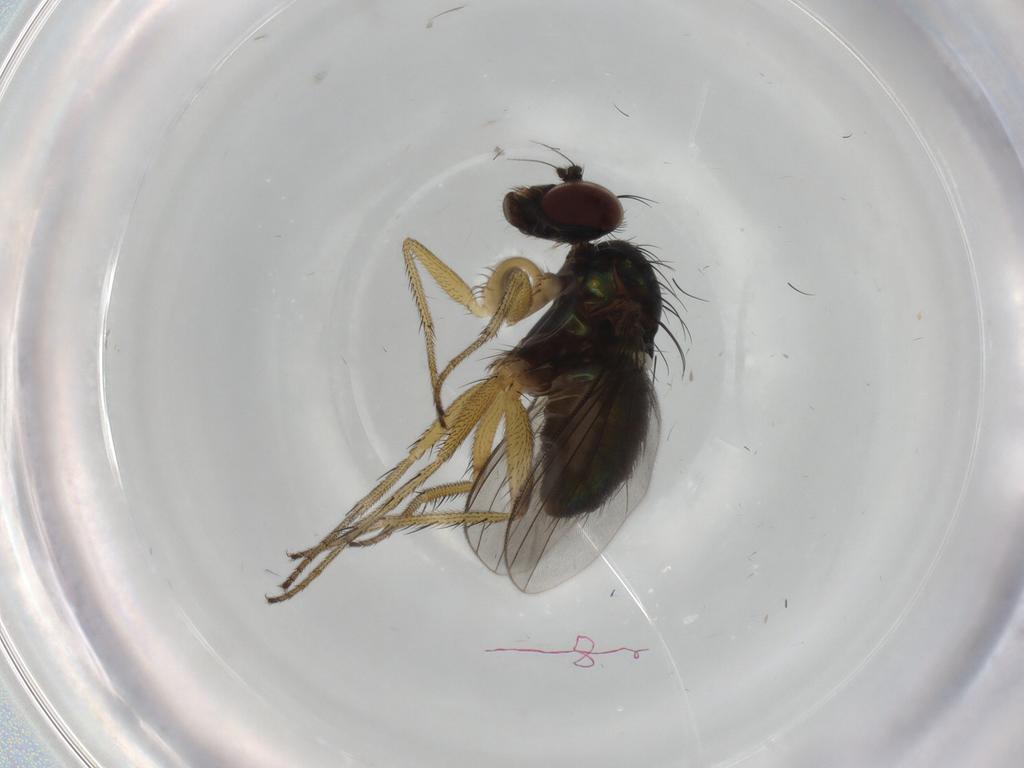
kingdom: Animalia
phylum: Arthropoda
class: Insecta
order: Diptera
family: Dolichopodidae
